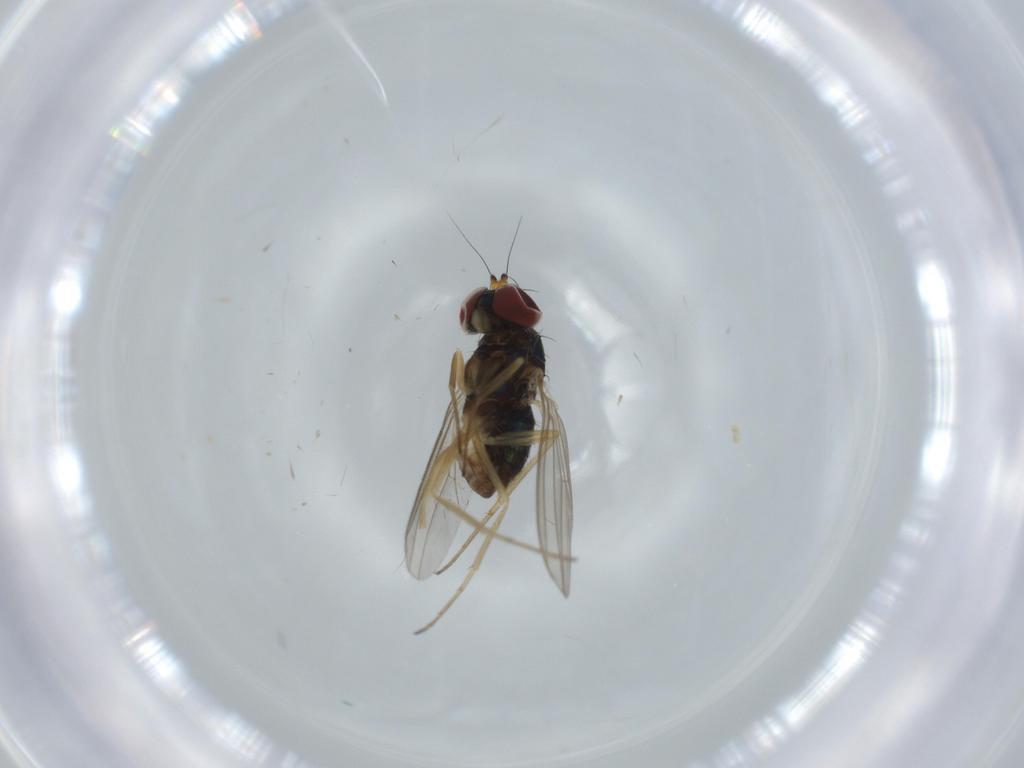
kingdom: Animalia
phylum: Arthropoda
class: Insecta
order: Diptera
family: Dolichopodidae
